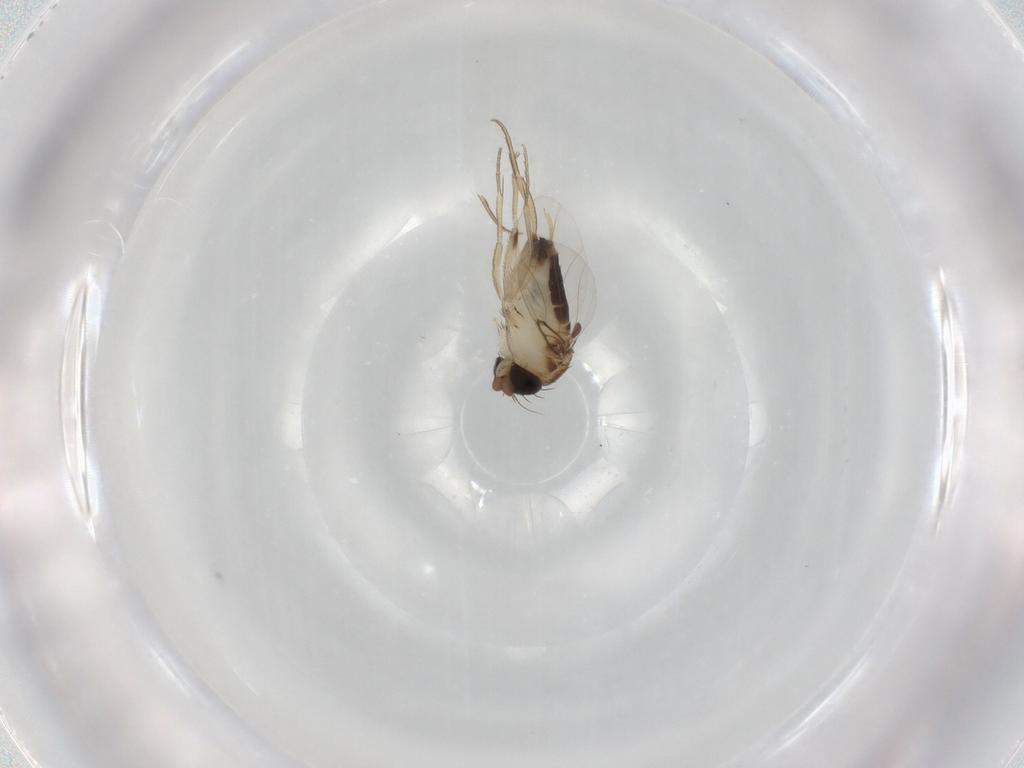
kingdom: Animalia
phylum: Arthropoda
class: Insecta
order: Diptera
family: Phoridae
